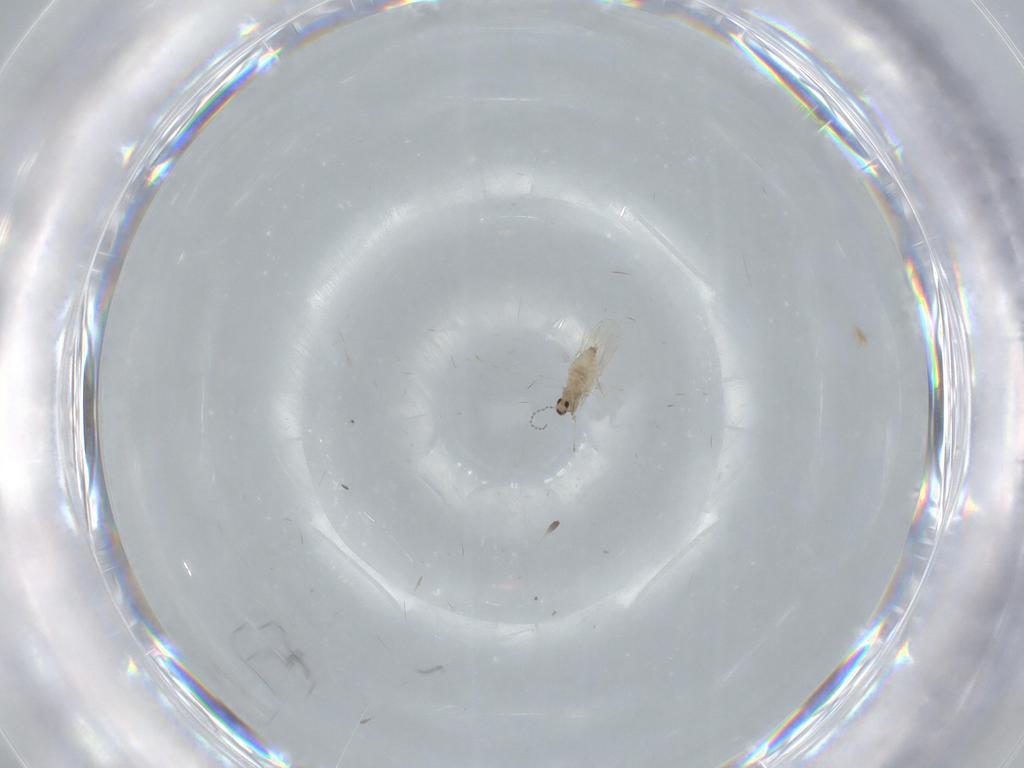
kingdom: Animalia
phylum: Arthropoda
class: Insecta
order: Diptera
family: Cecidomyiidae
